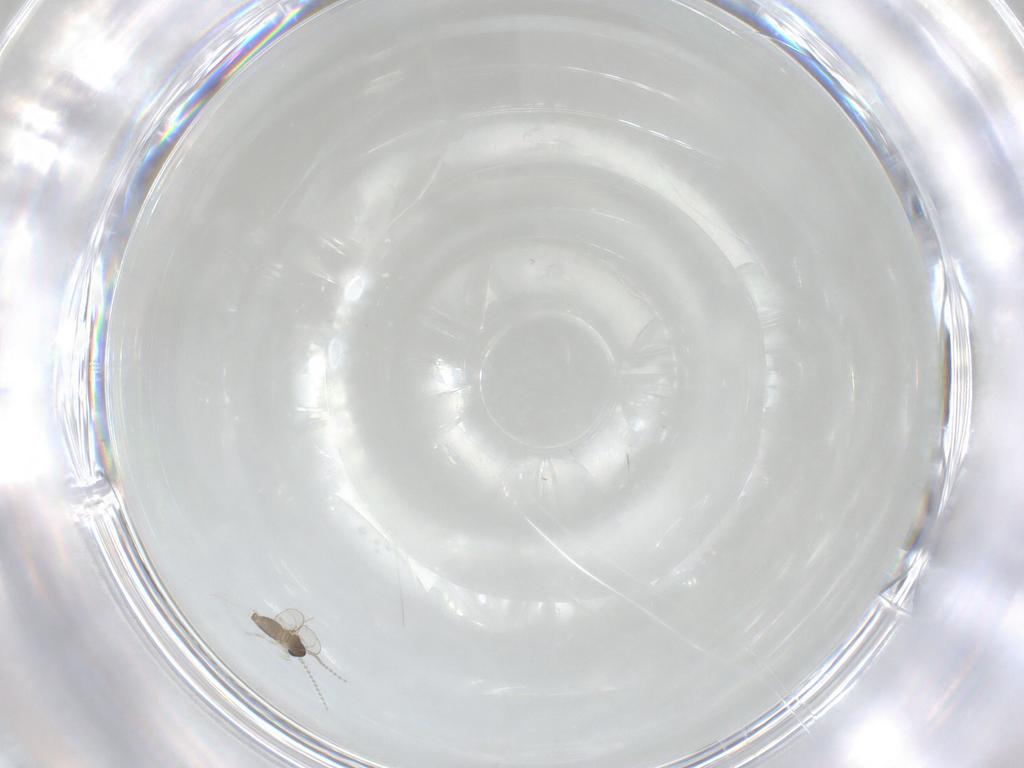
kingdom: Animalia
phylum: Arthropoda
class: Insecta
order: Diptera
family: Cecidomyiidae
